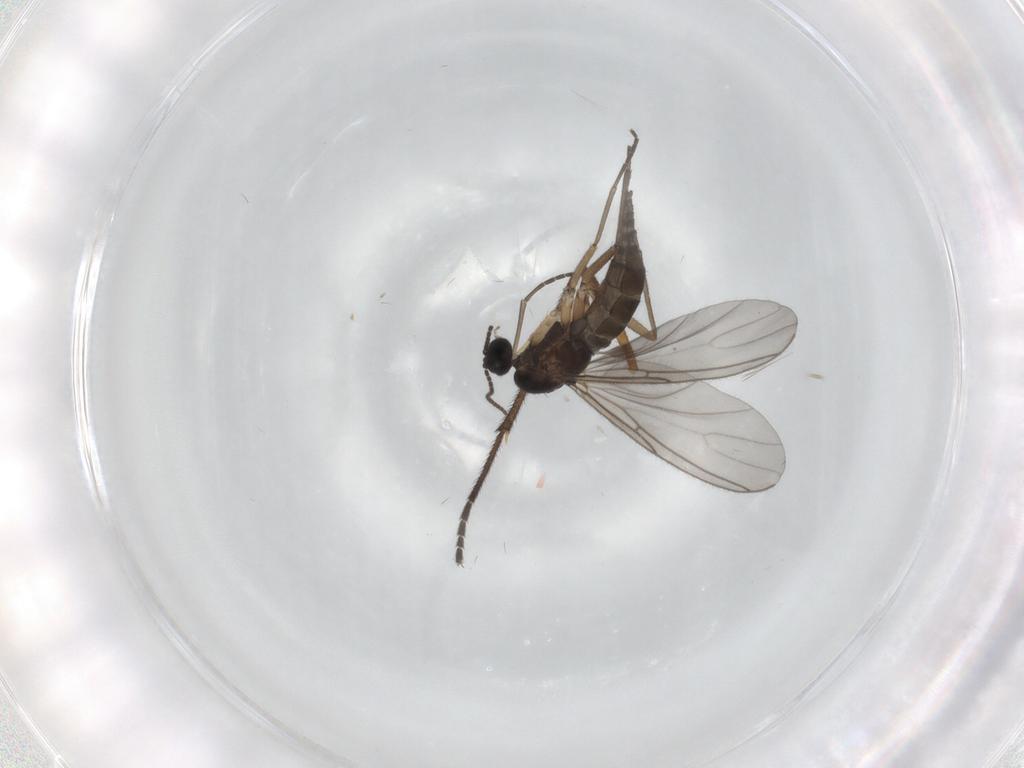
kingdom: Animalia
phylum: Arthropoda
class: Insecta
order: Diptera
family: Sciaridae
